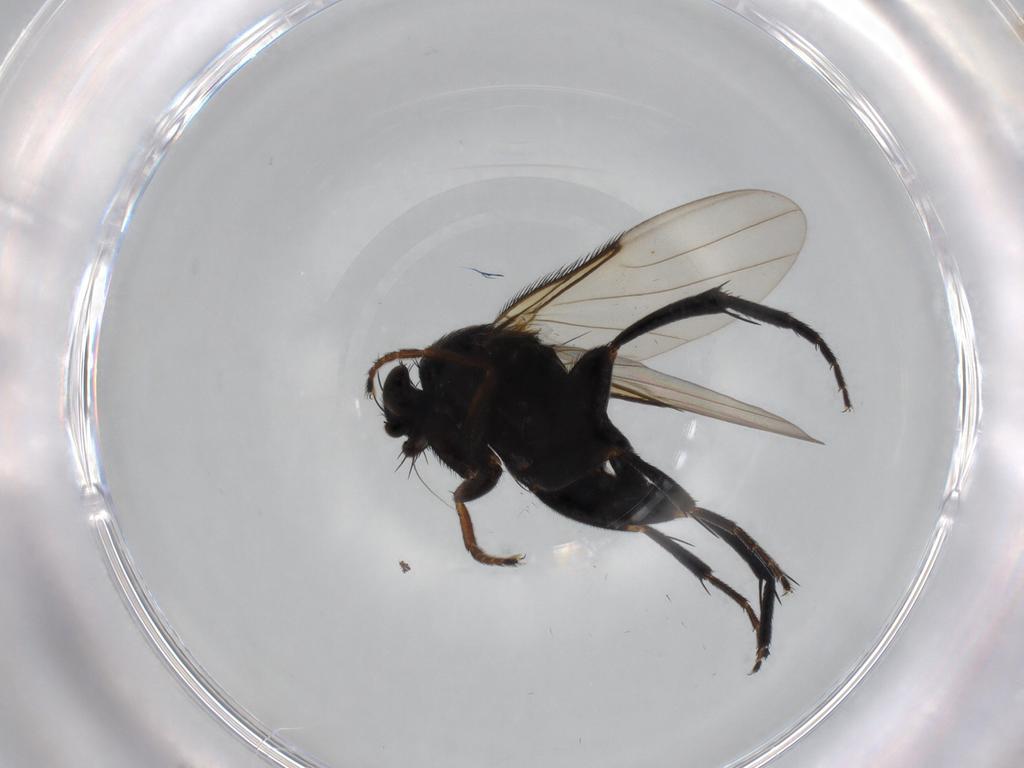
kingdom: Animalia
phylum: Arthropoda
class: Insecta
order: Diptera
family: Phoridae
